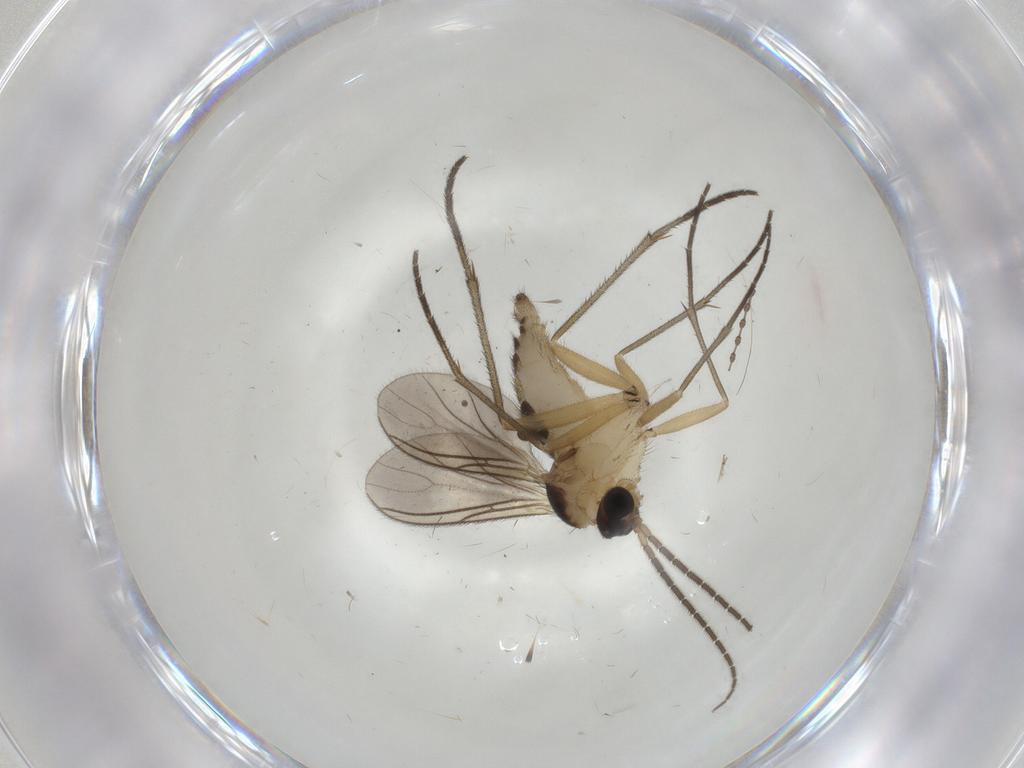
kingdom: Animalia
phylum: Arthropoda
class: Insecta
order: Diptera
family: Sciaridae
